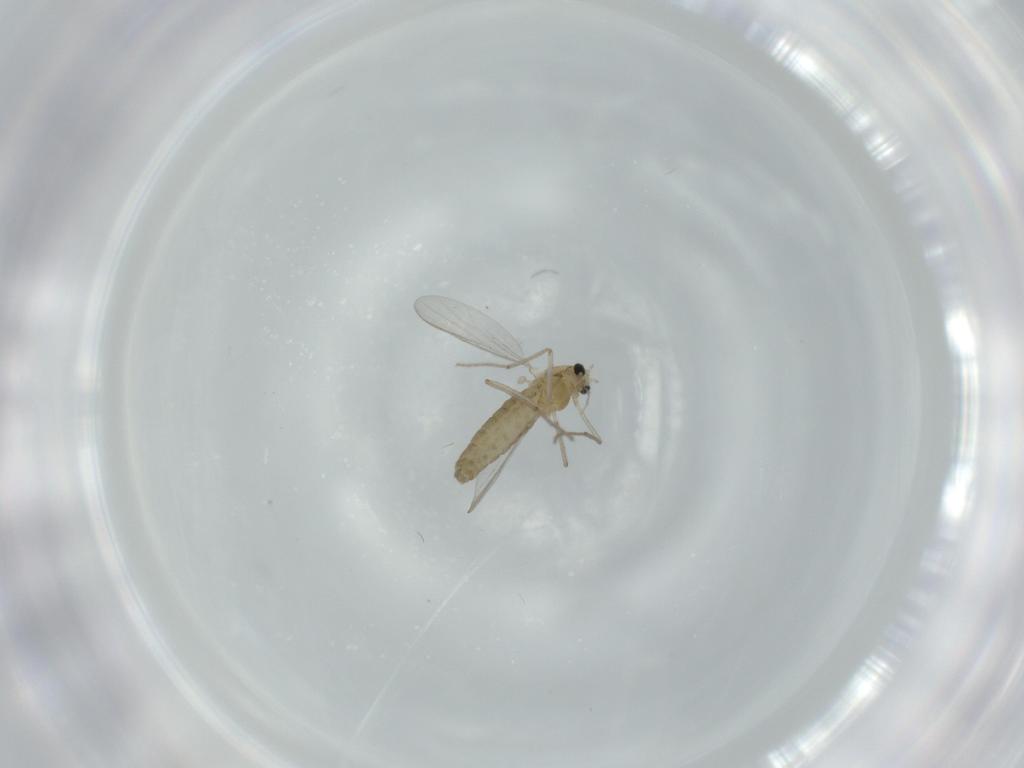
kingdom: Animalia
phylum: Arthropoda
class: Insecta
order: Diptera
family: Chironomidae
